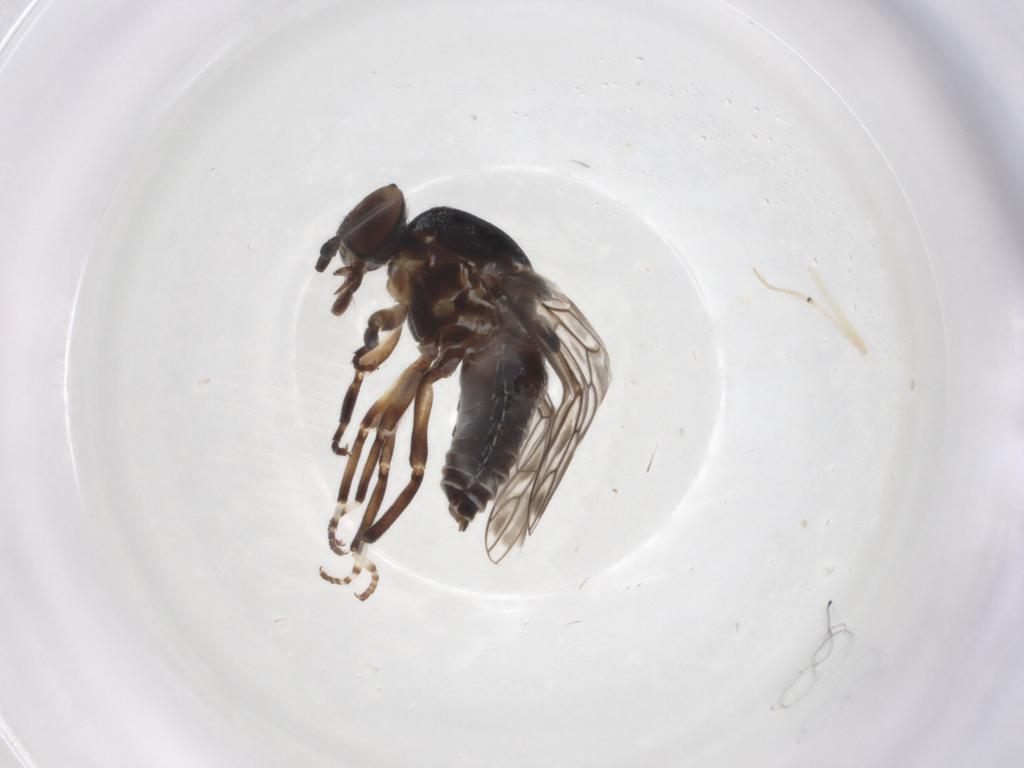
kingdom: Animalia
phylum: Arthropoda
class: Insecta
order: Diptera
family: Scenopinidae
